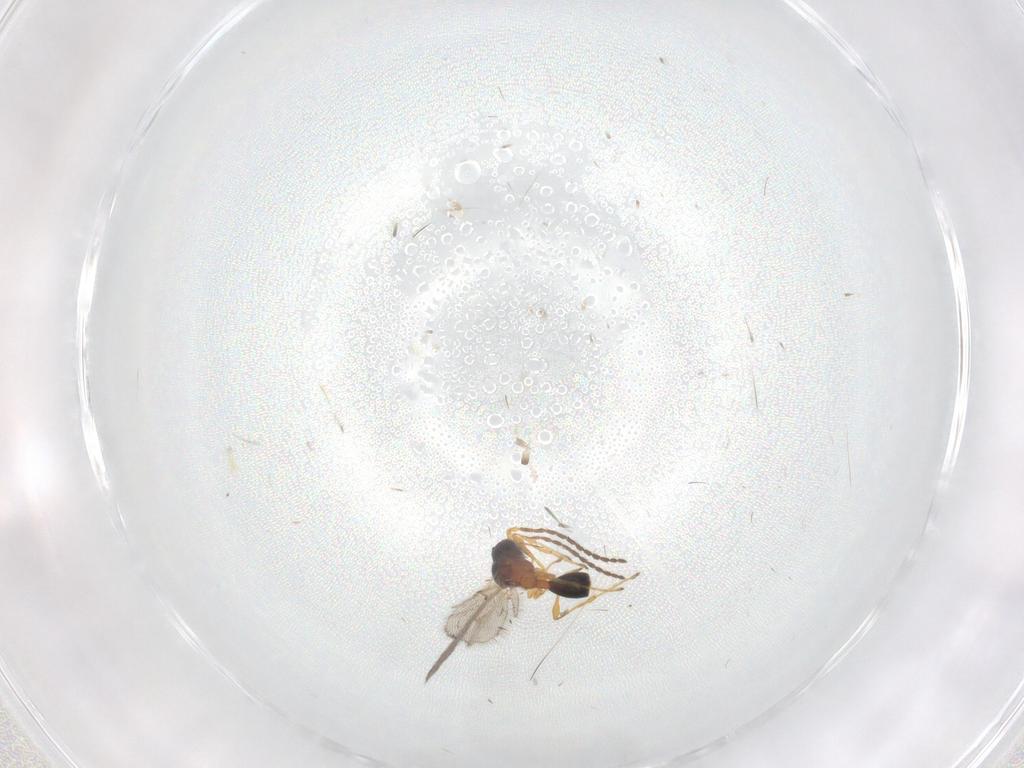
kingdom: Animalia
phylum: Arthropoda
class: Insecta
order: Hymenoptera
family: Diapriidae
